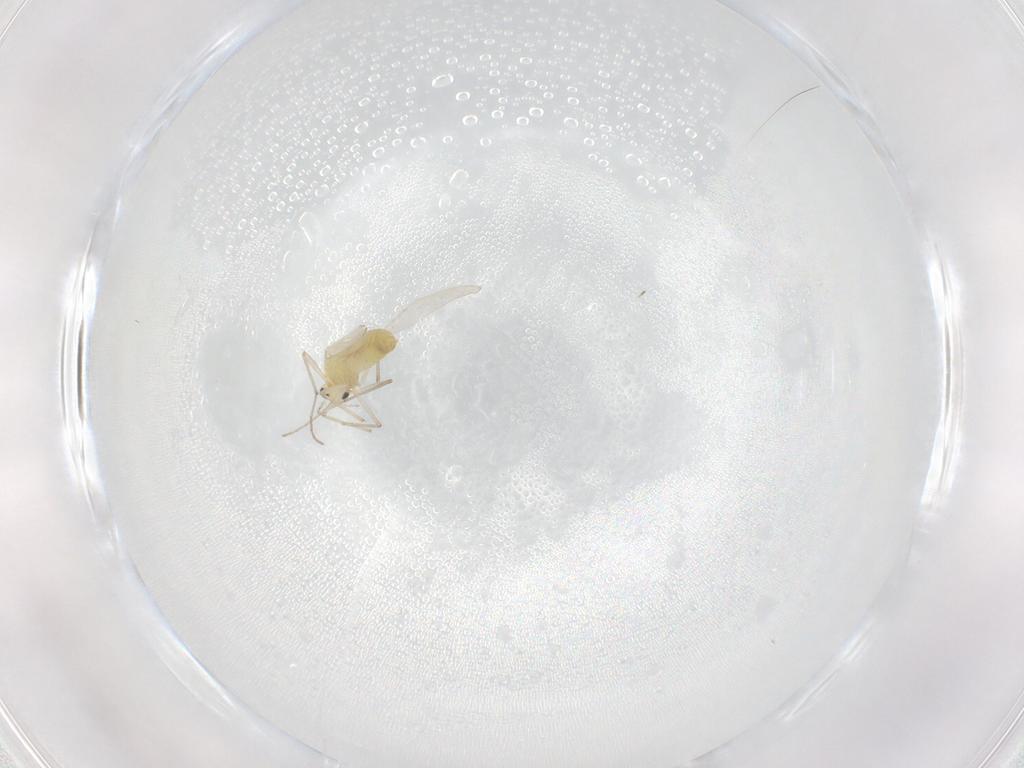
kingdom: Animalia
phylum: Arthropoda
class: Insecta
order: Diptera
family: Chironomidae
